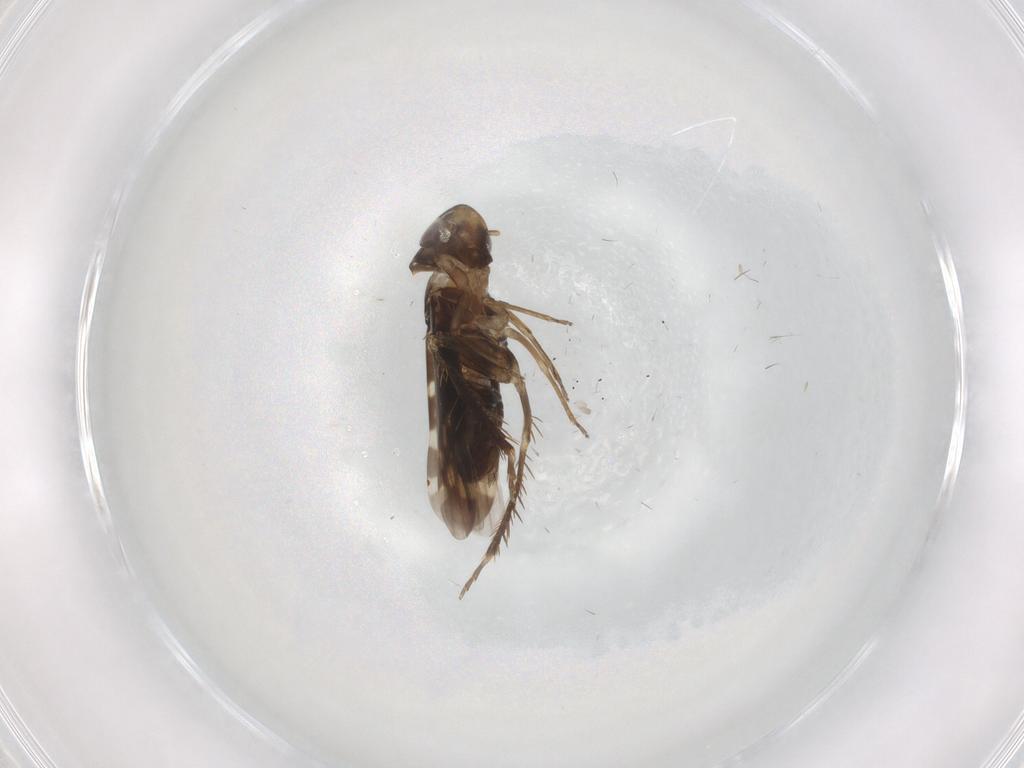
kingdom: Animalia
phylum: Arthropoda
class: Insecta
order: Hemiptera
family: Cicadellidae
